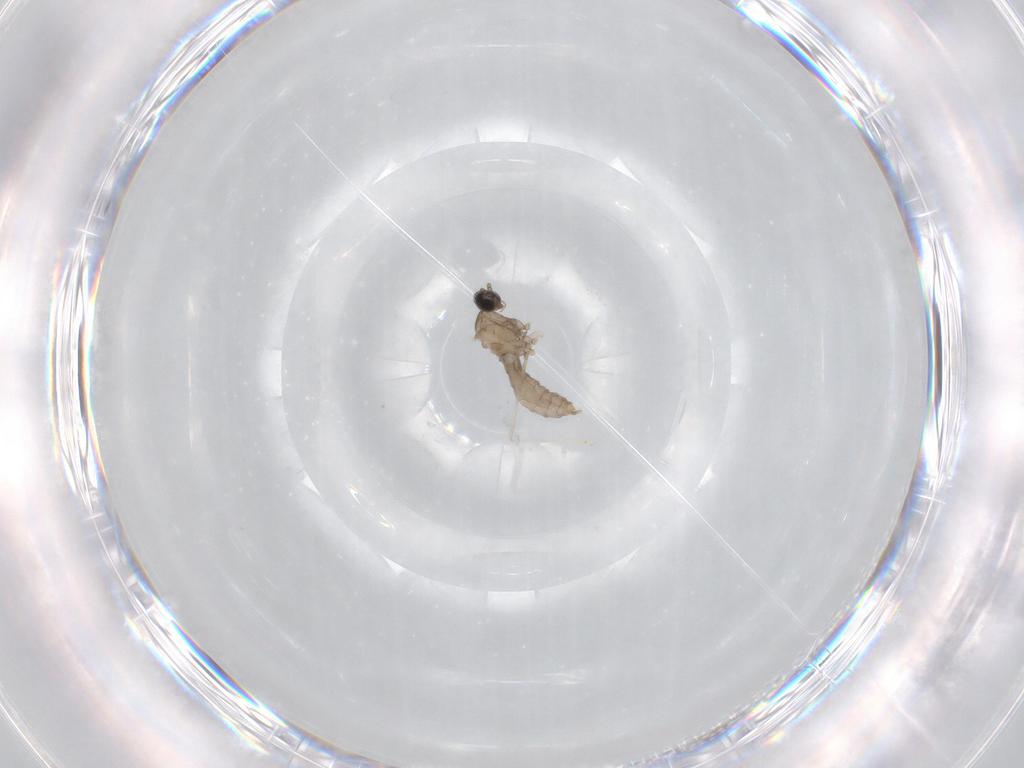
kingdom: Animalia
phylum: Arthropoda
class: Insecta
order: Diptera
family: Cecidomyiidae
